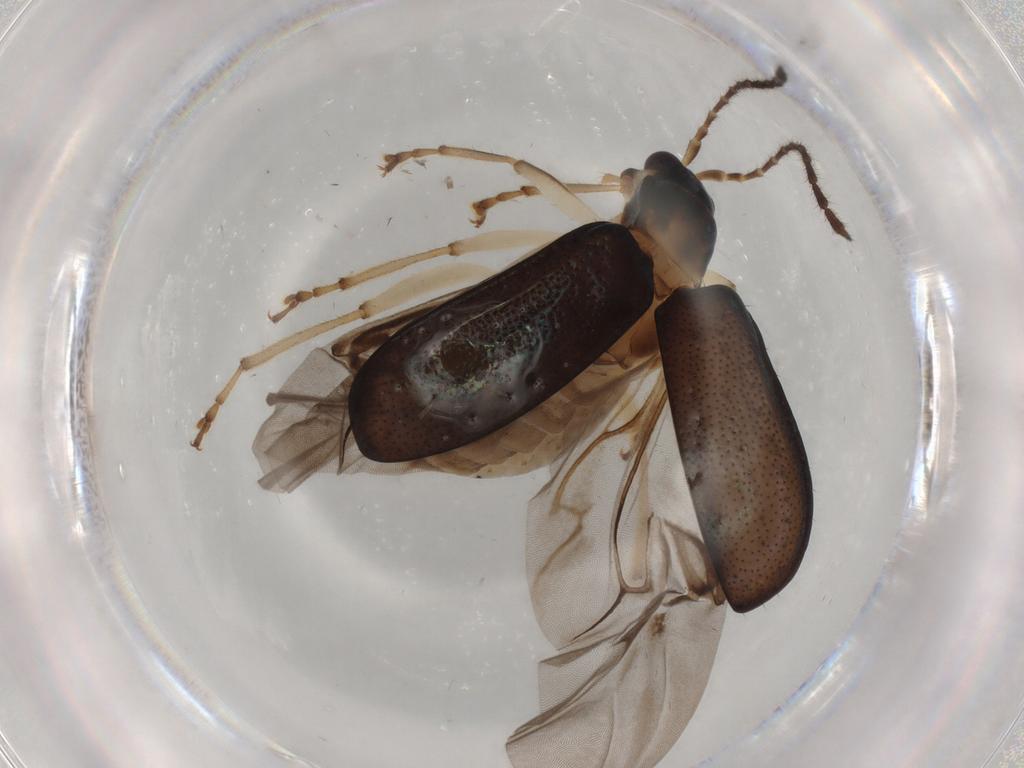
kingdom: Animalia
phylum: Arthropoda
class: Insecta
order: Coleoptera
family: Chrysomelidae
